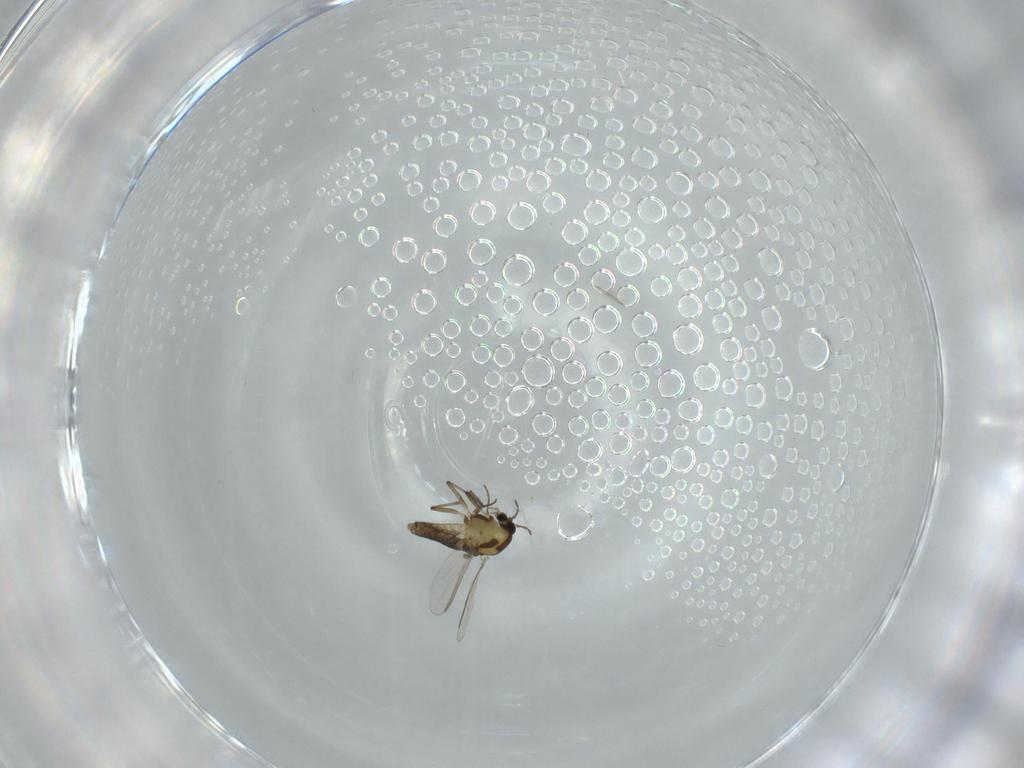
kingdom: Animalia
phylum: Arthropoda
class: Insecta
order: Diptera
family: Chironomidae
